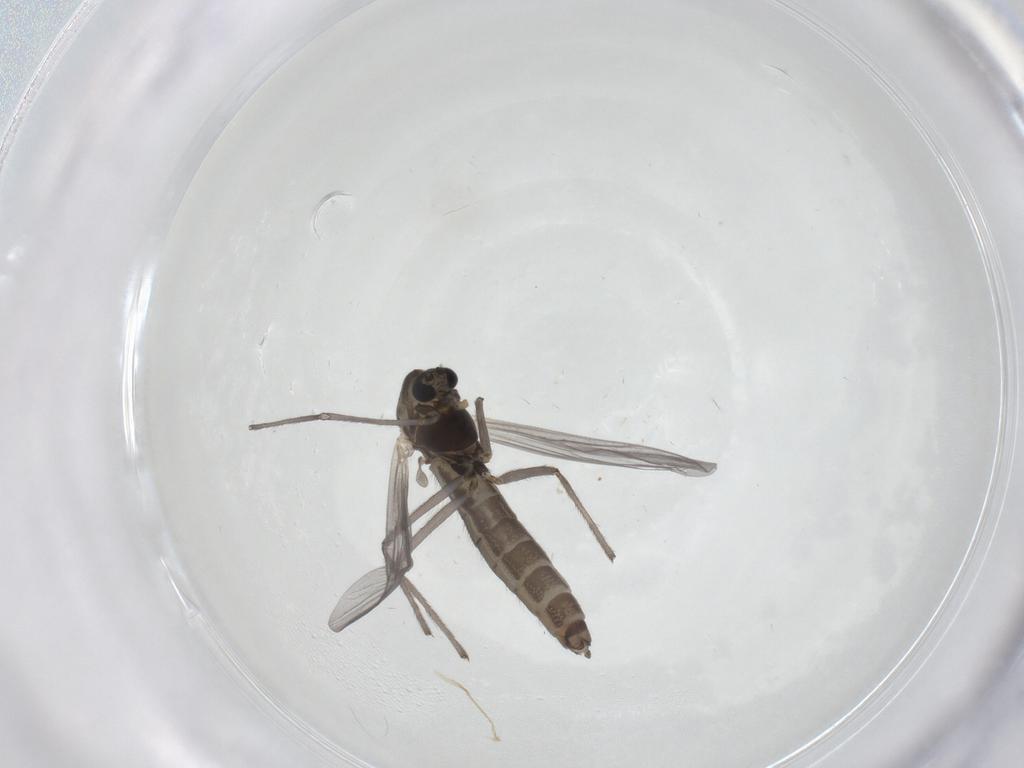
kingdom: Animalia
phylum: Arthropoda
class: Insecta
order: Diptera
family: Chironomidae
